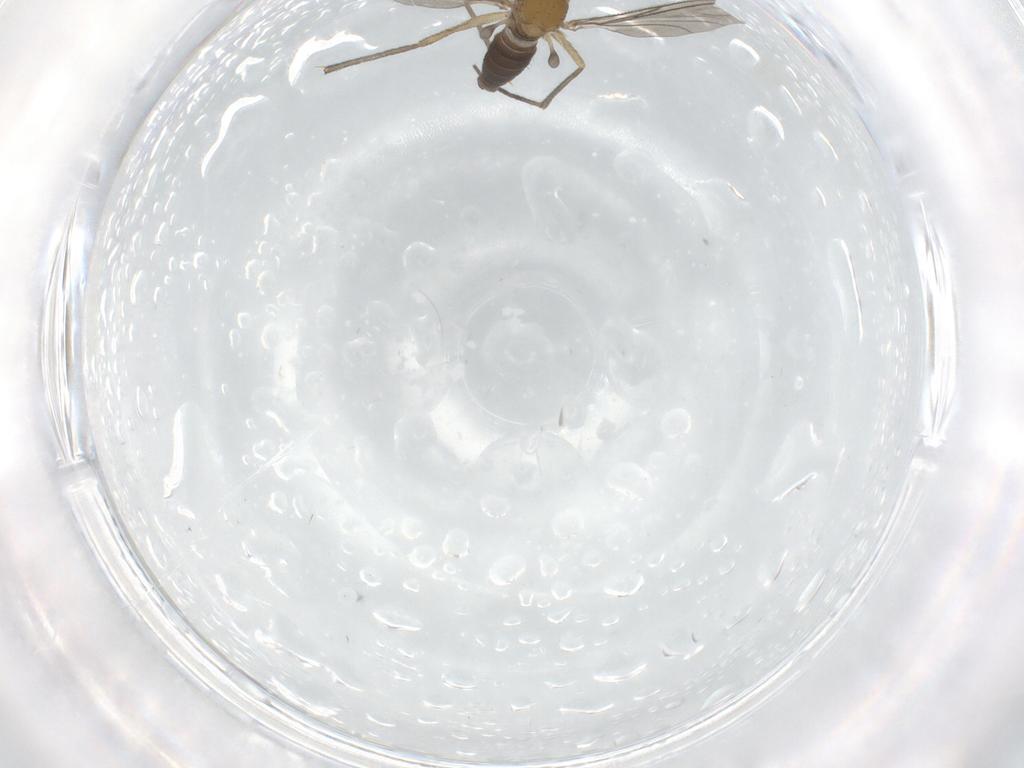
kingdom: Animalia
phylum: Arthropoda
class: Insecta
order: Diptera
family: Sciaridae
